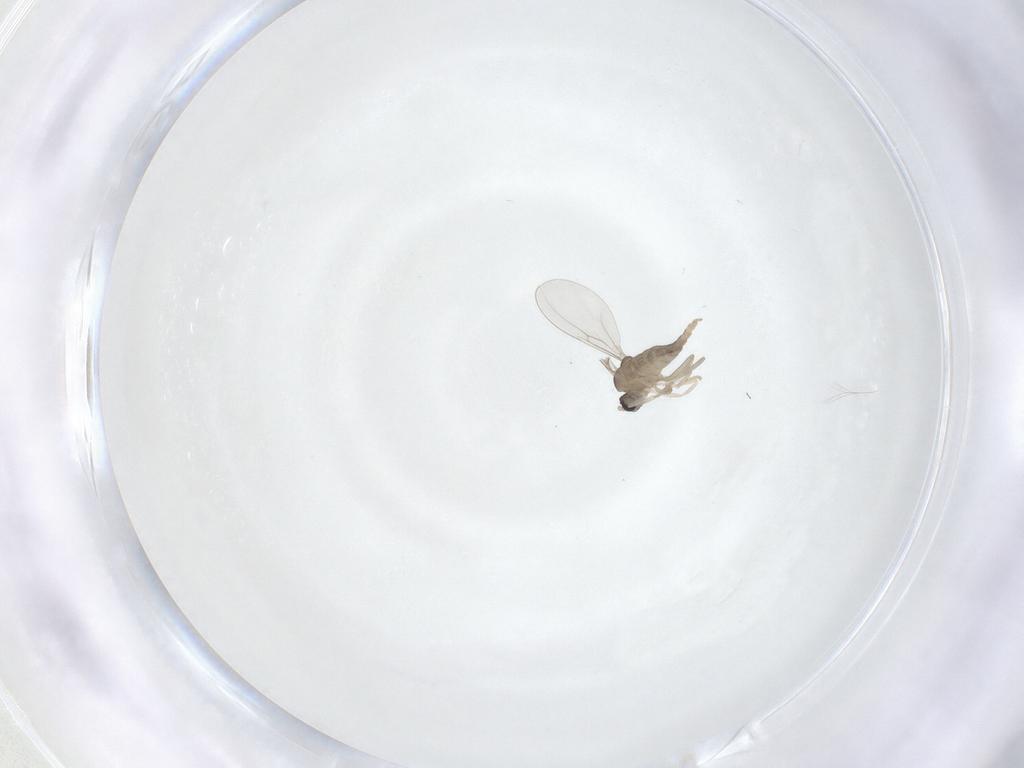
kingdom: Animalia
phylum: Arthropoda
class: Insecta
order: Diptera
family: Cecidomyiidae
